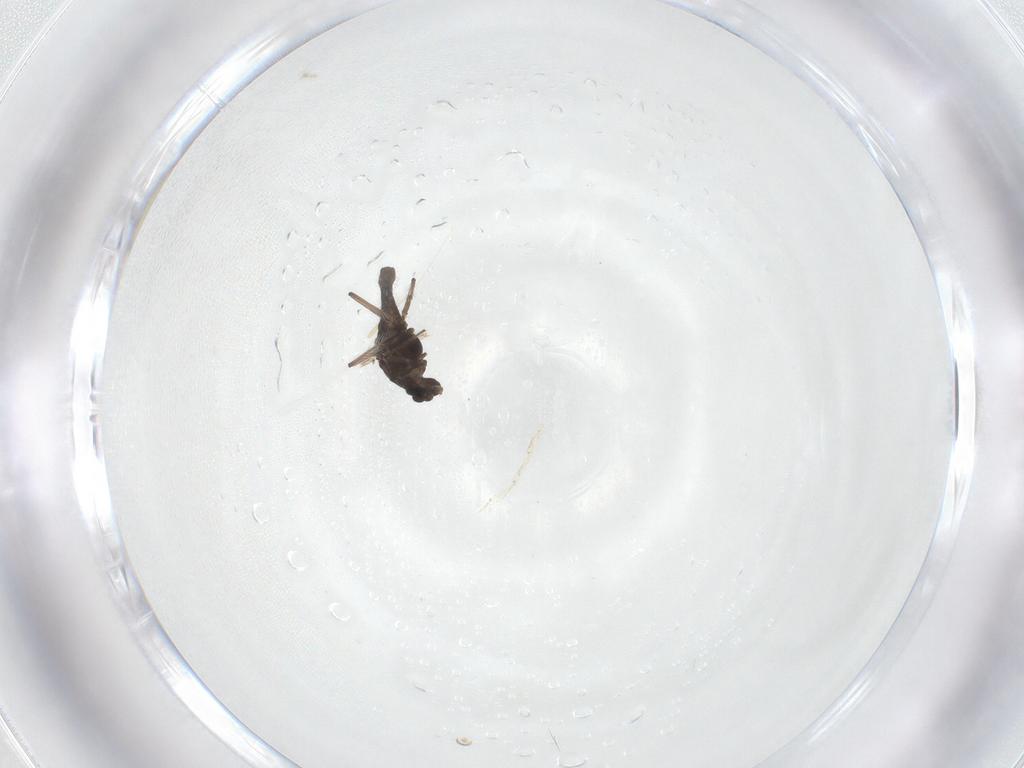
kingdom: Animalia
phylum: Arthropoda
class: Insecta
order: Diptera
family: Chironomidae
